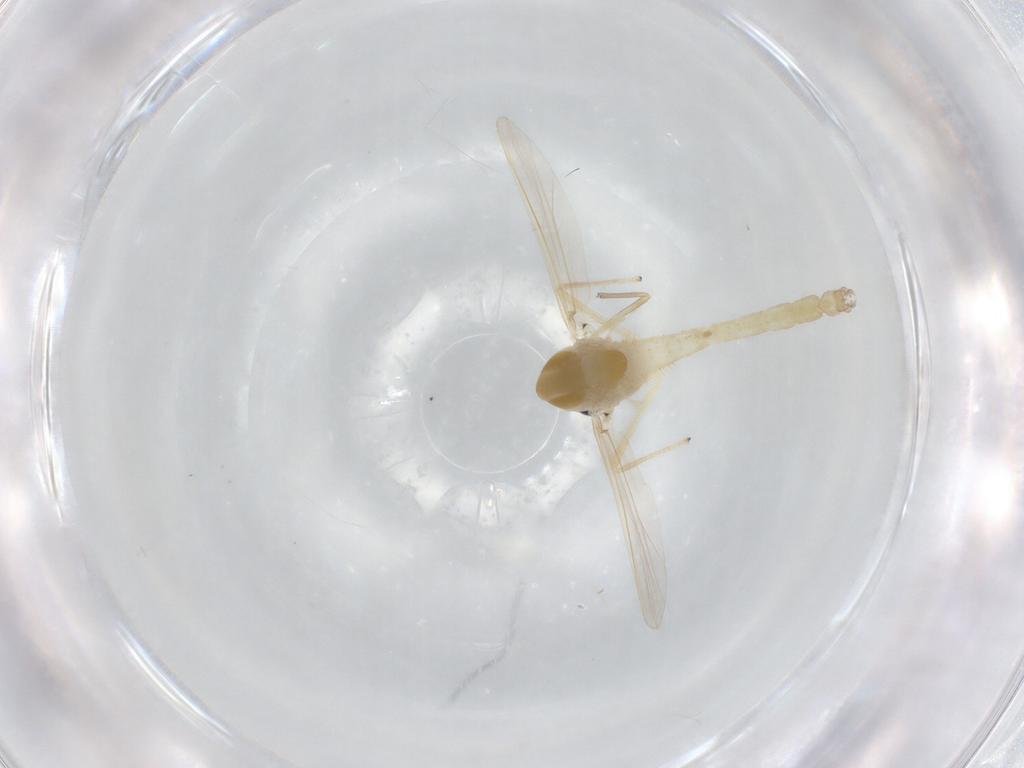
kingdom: Animalia
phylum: Arthropoda
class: Insecta
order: Diptera
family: Chironomidae
